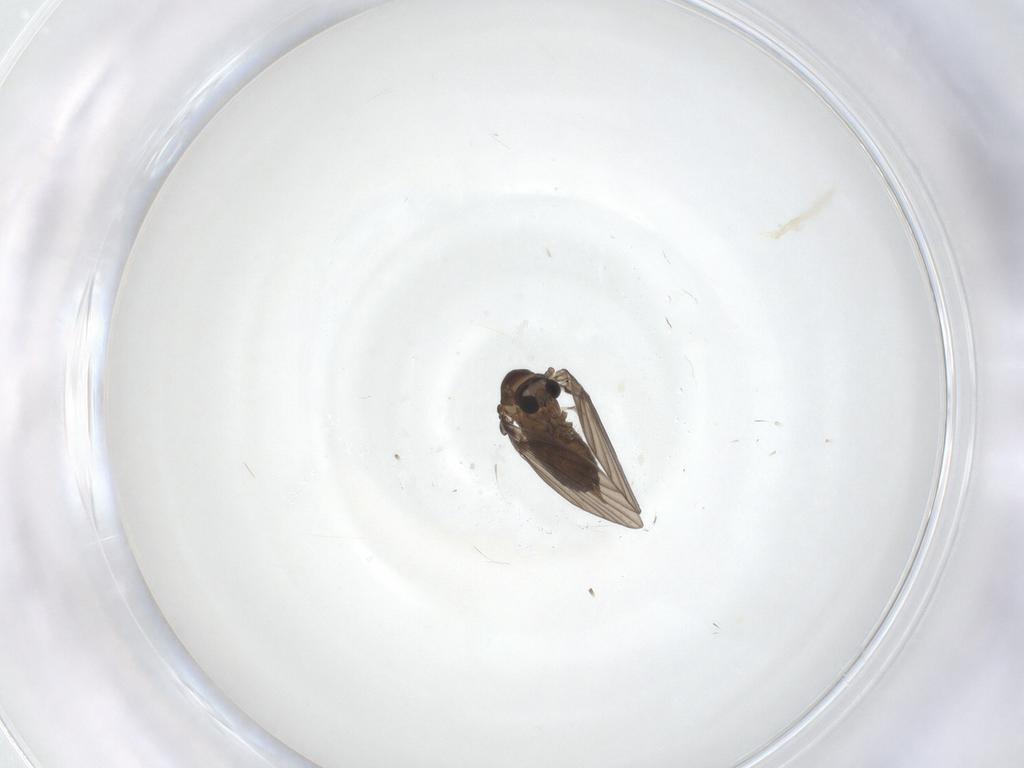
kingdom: Animalia
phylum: Arthropoda
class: Insecta
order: Diptera
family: Psychodidae
